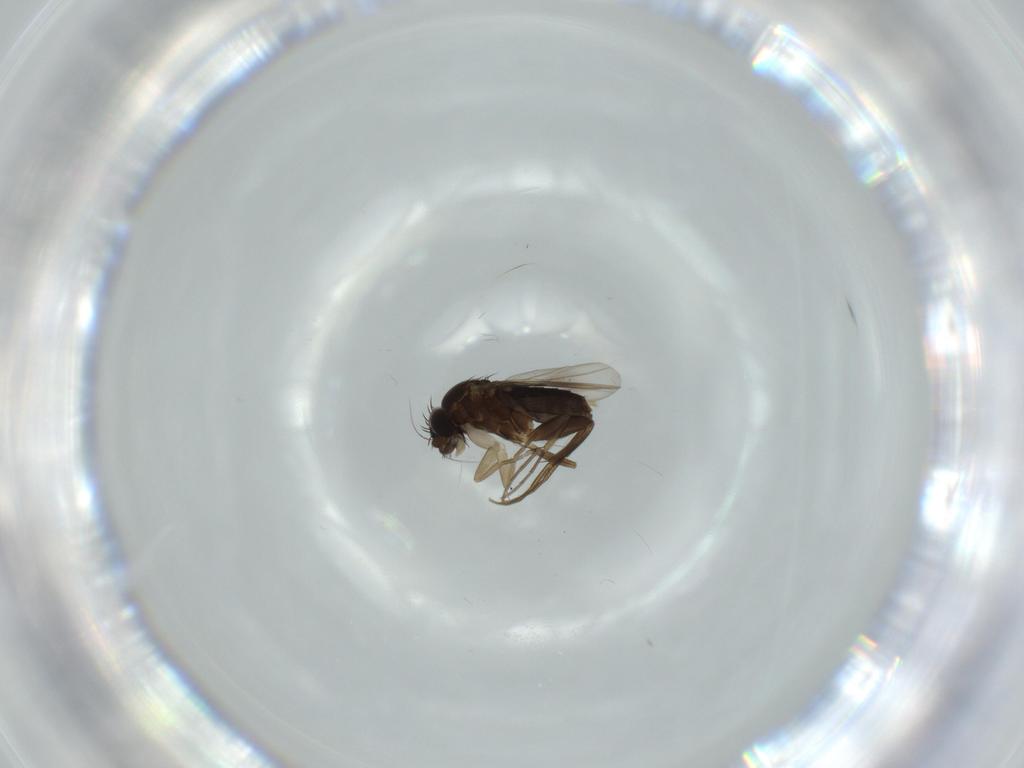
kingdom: Animalia
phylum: Arthropoda
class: Insecta
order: Diptera
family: Phoridae
